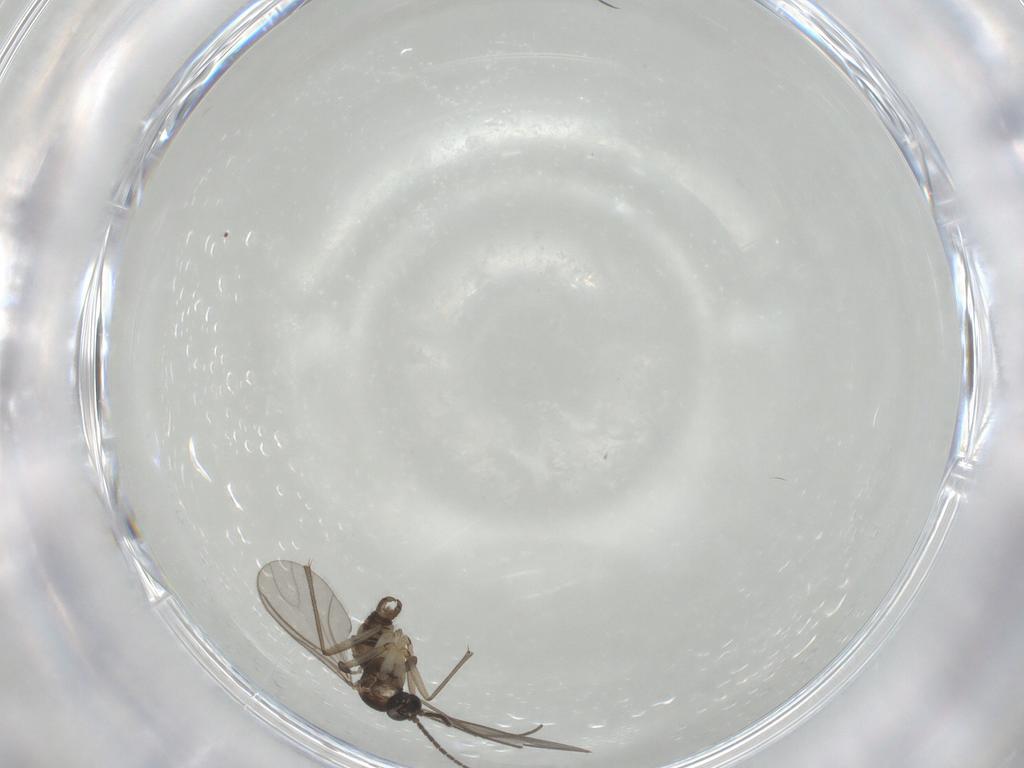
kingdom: Animalia
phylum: Arthropoda
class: Insecta
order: Diptera
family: Sciaridae
